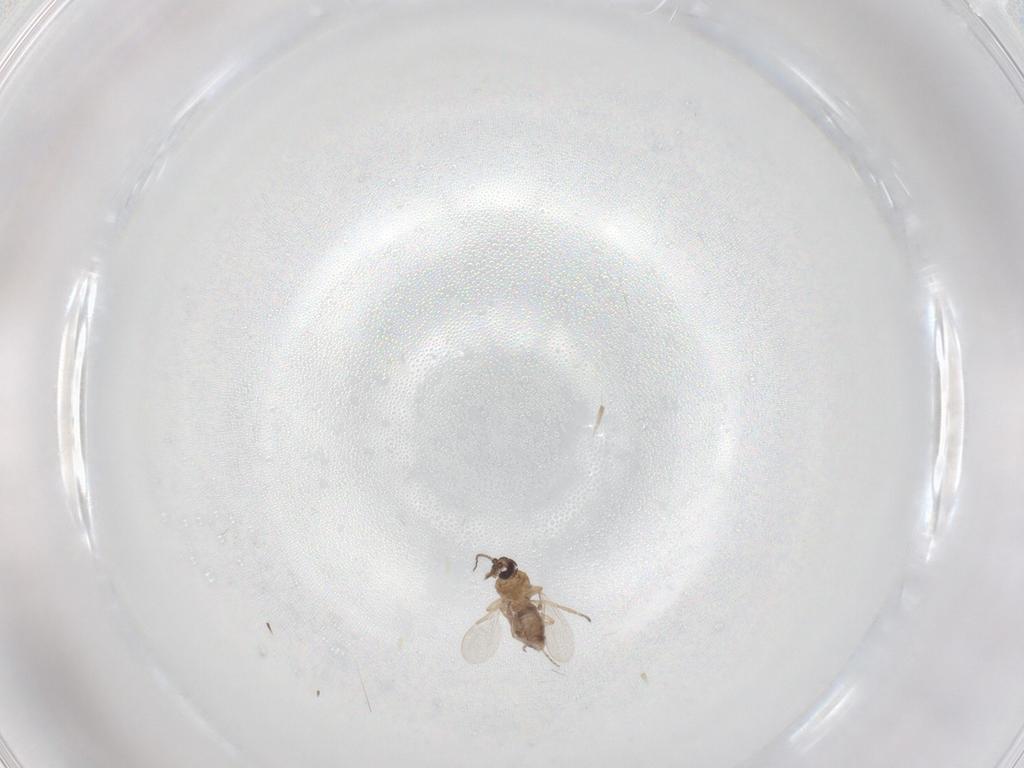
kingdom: Animalia
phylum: Arthropoda
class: Insecta
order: Diptera
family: Phoridae
